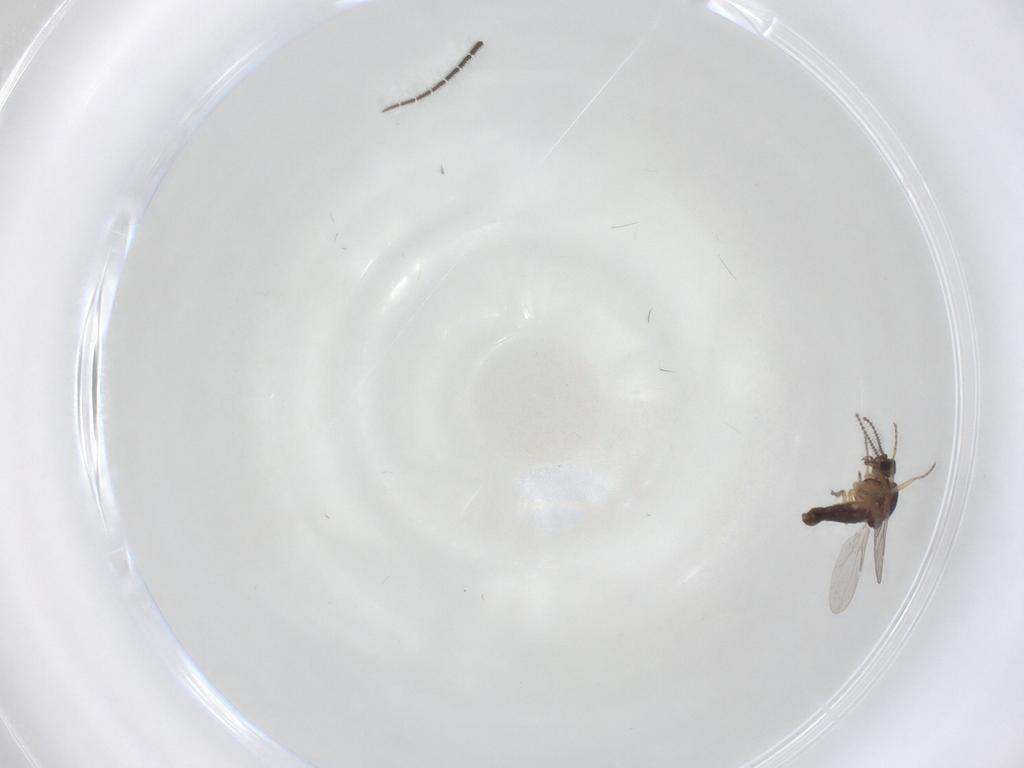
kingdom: Animalia
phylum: Arthropoda
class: Insecta
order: Diptera
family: Ceratopogonidae
